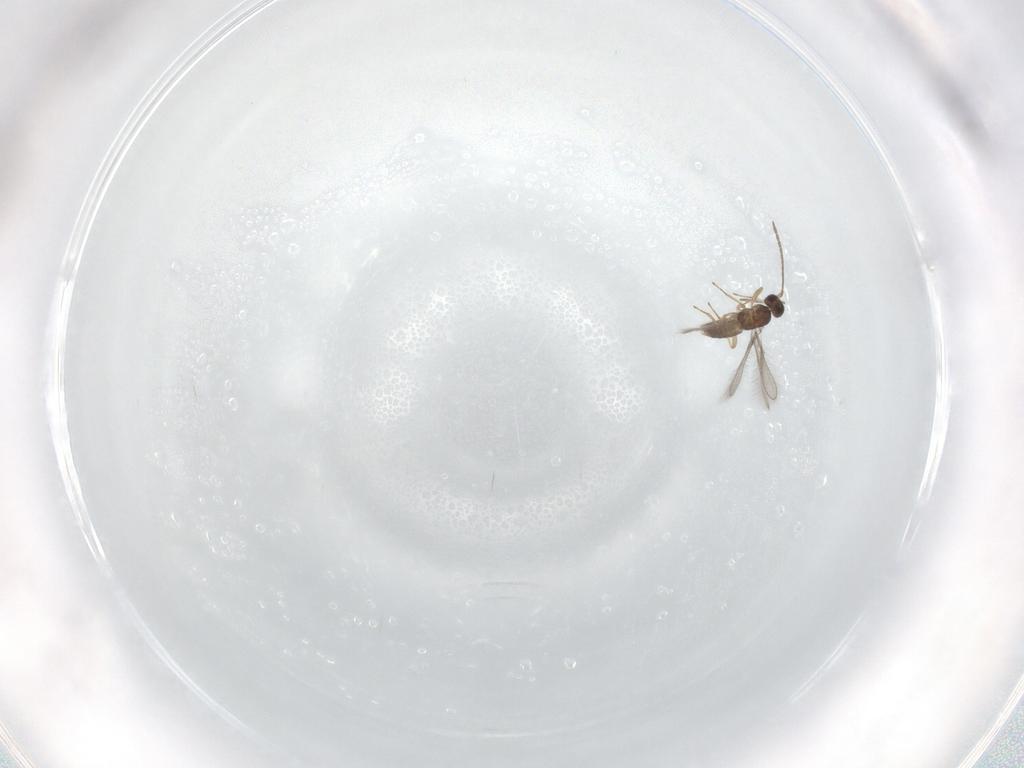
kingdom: Animalia
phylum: Arthropoda
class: Insecta
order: Hymenoptera
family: Mymaridae
